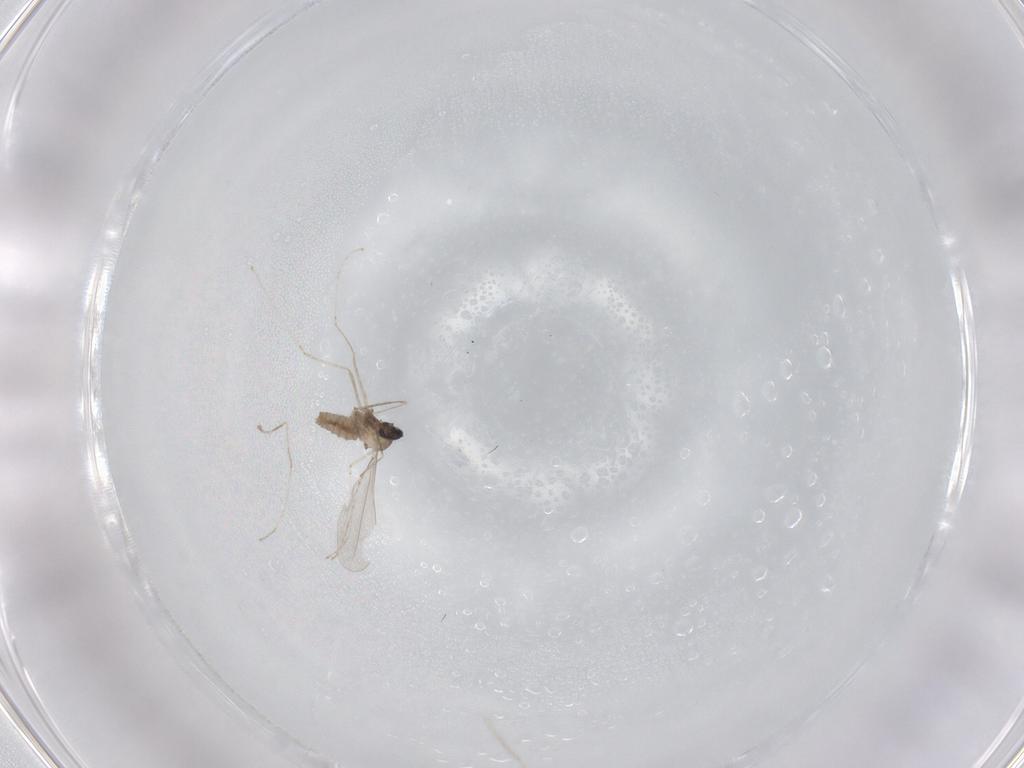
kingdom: Animalia
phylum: Arthropoda
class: Insecta
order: Diptera
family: Cecidomyiidae
